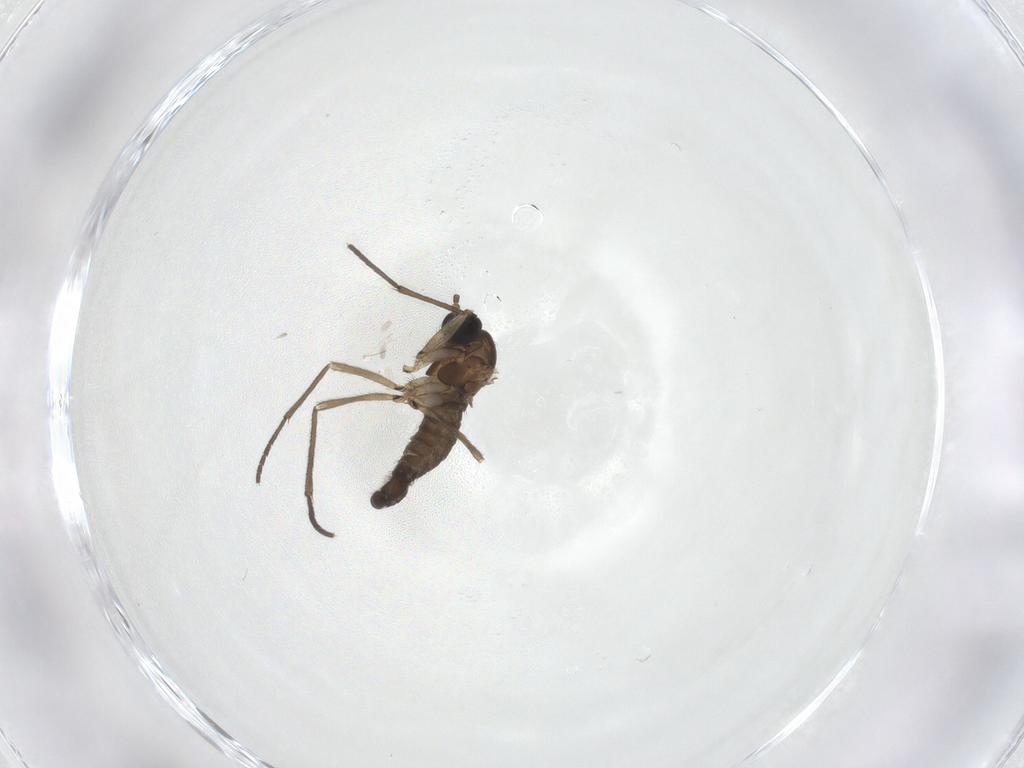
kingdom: Animalia
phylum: Arthropoda
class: Insecta
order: Diptera
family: Sciaridae
